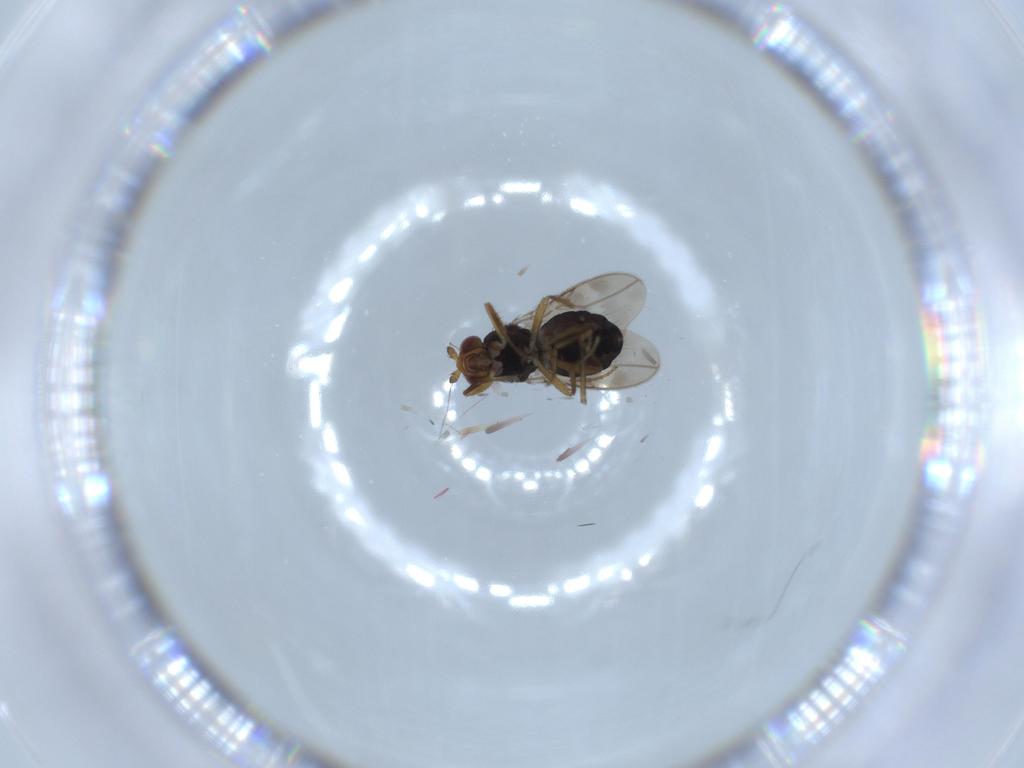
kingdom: Animalia
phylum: Arthropoda
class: Insecta
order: Diptera
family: Sphaeroceridae
